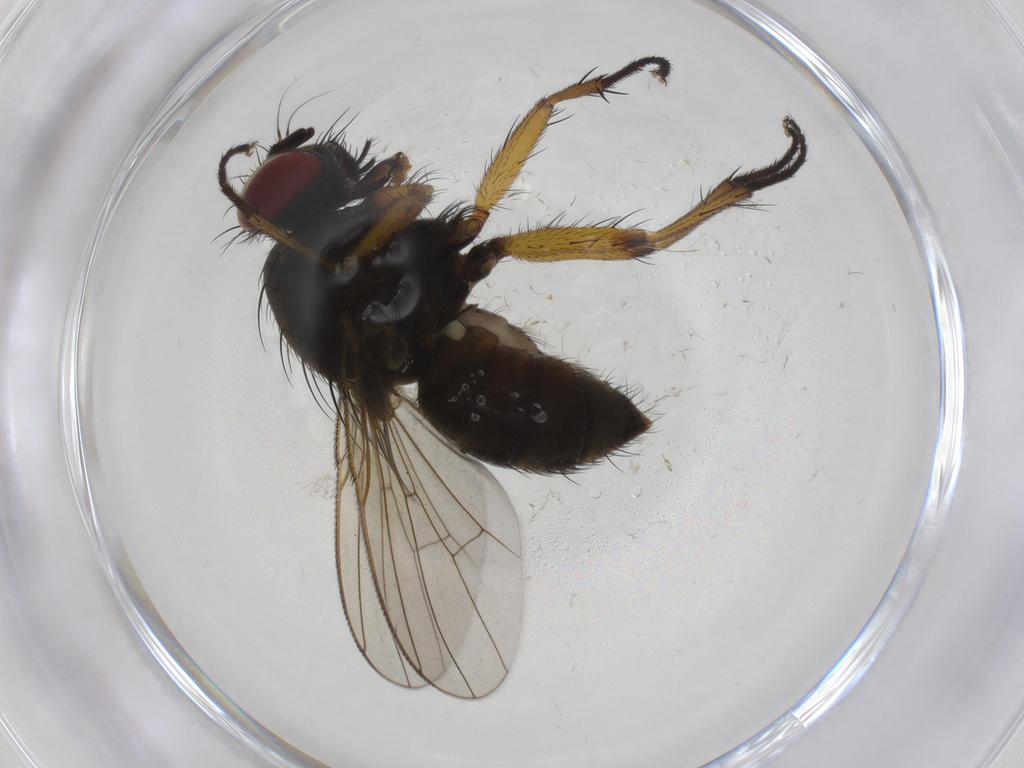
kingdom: Animalia
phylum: Arthropoda
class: Insecta
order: Diptera
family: Muscidae
